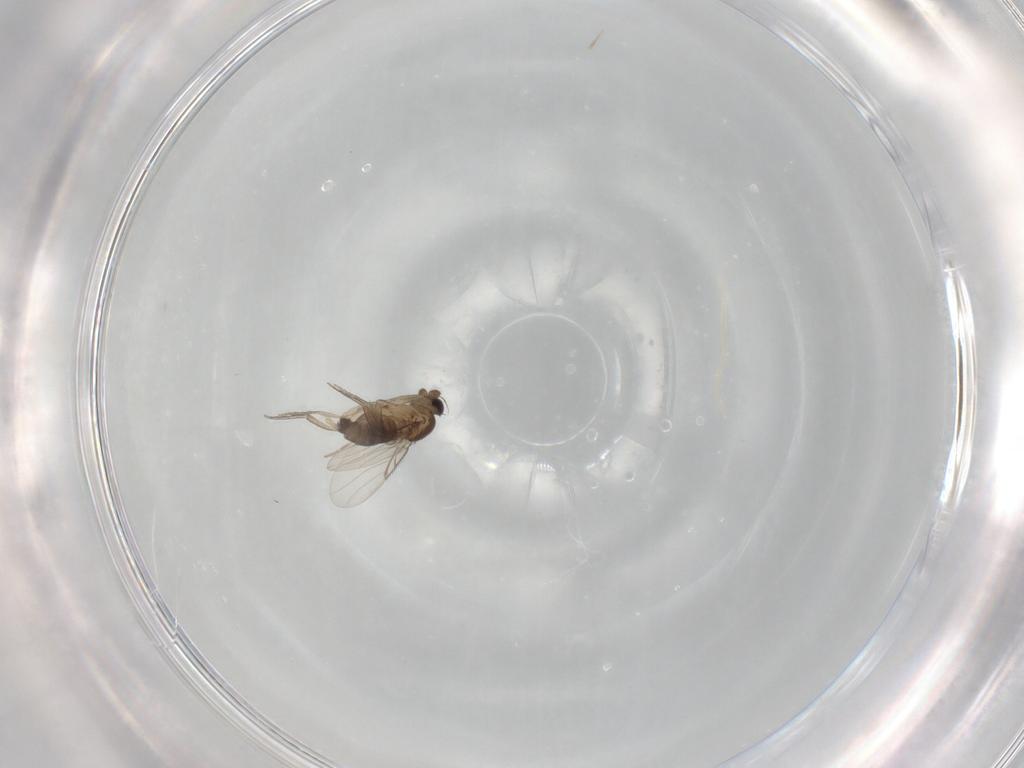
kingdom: Animalia
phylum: Arthropoda
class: Insecta
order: Diptera
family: Phoridae
